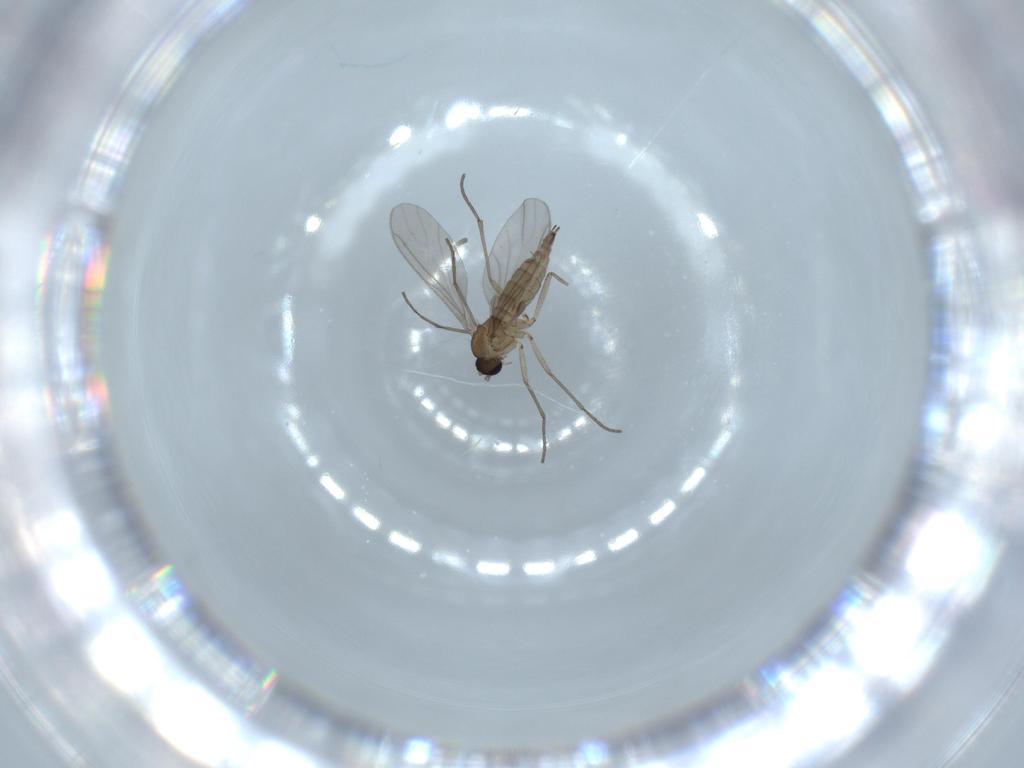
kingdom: Animalia
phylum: Arthropoda
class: Insecta
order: Diptera
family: Sphaeroceridae
